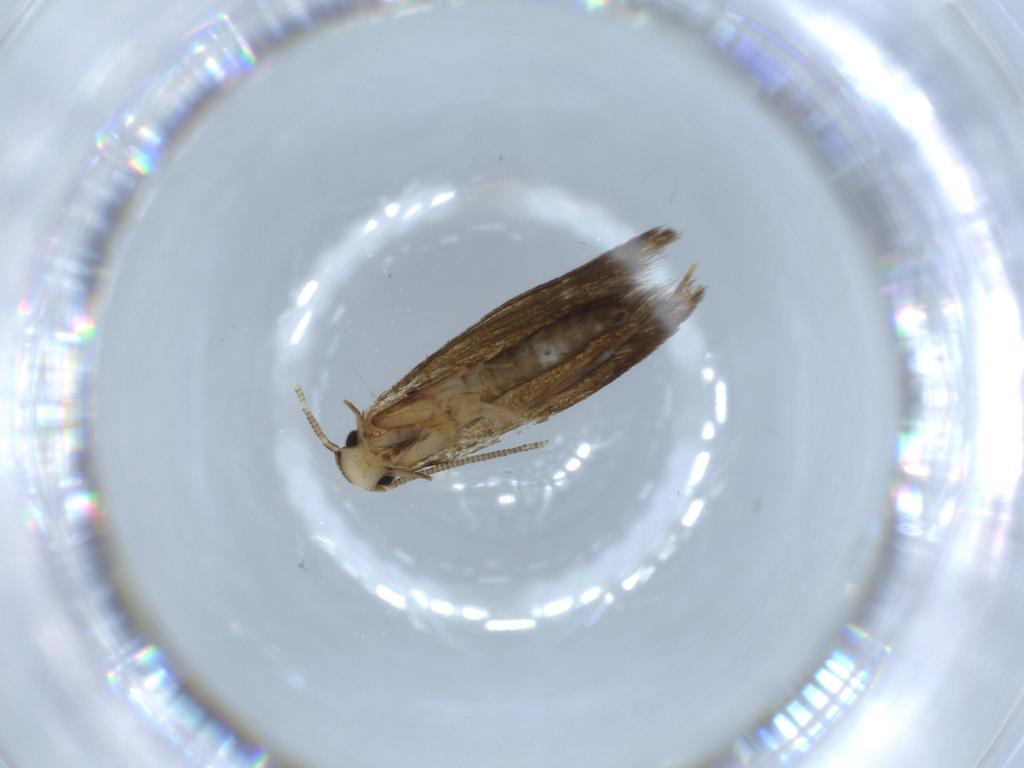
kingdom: Animalia
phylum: Arthropoda
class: Insecta
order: Lepidoptera
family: Tineidae
